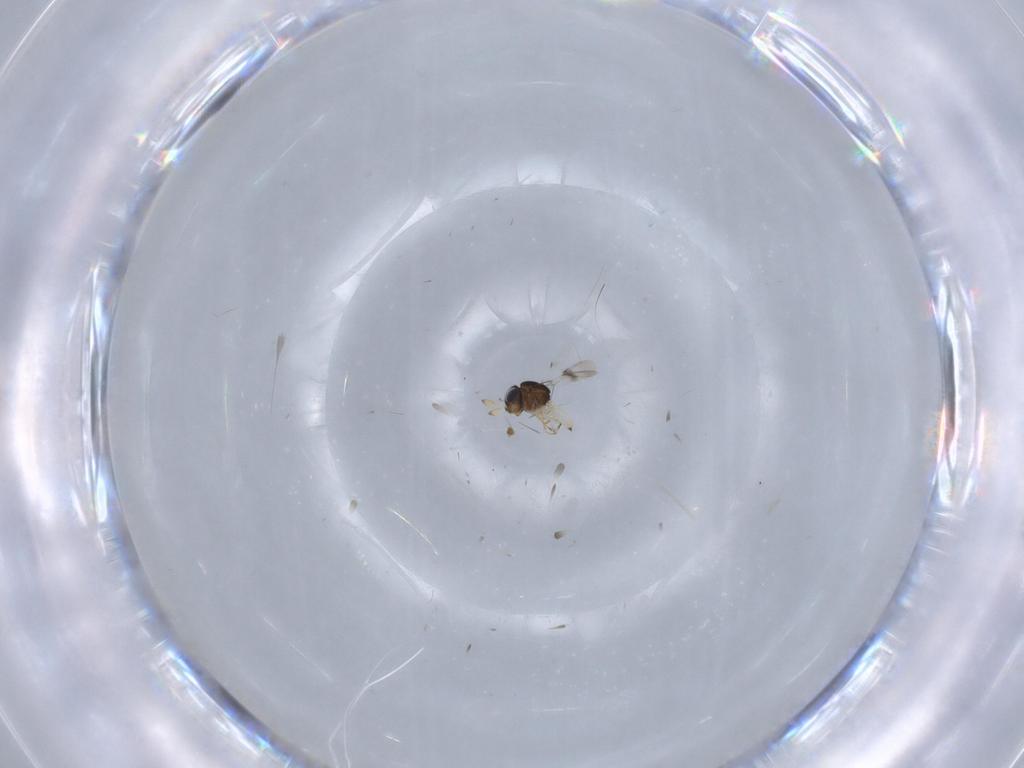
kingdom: Animalia
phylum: Arthropoda
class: Insecta
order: Hymenoptera
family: Scelionidae
